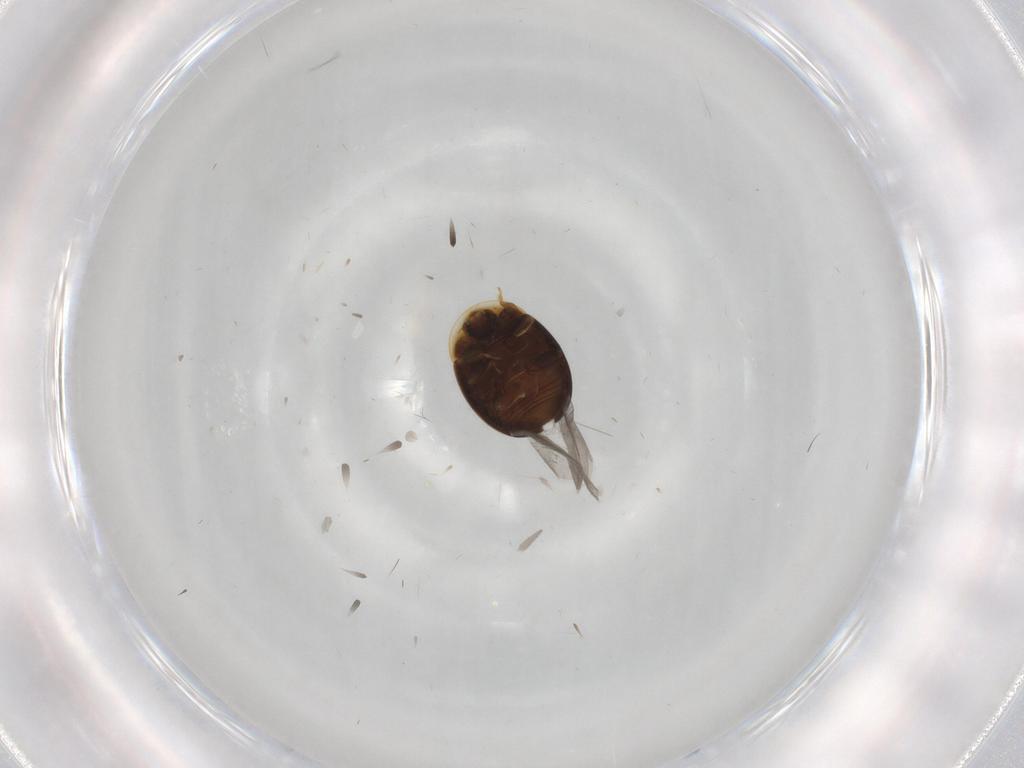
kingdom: Animalia
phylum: Arthropoda
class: Insecta
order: Coleoptera
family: Corylophidae
